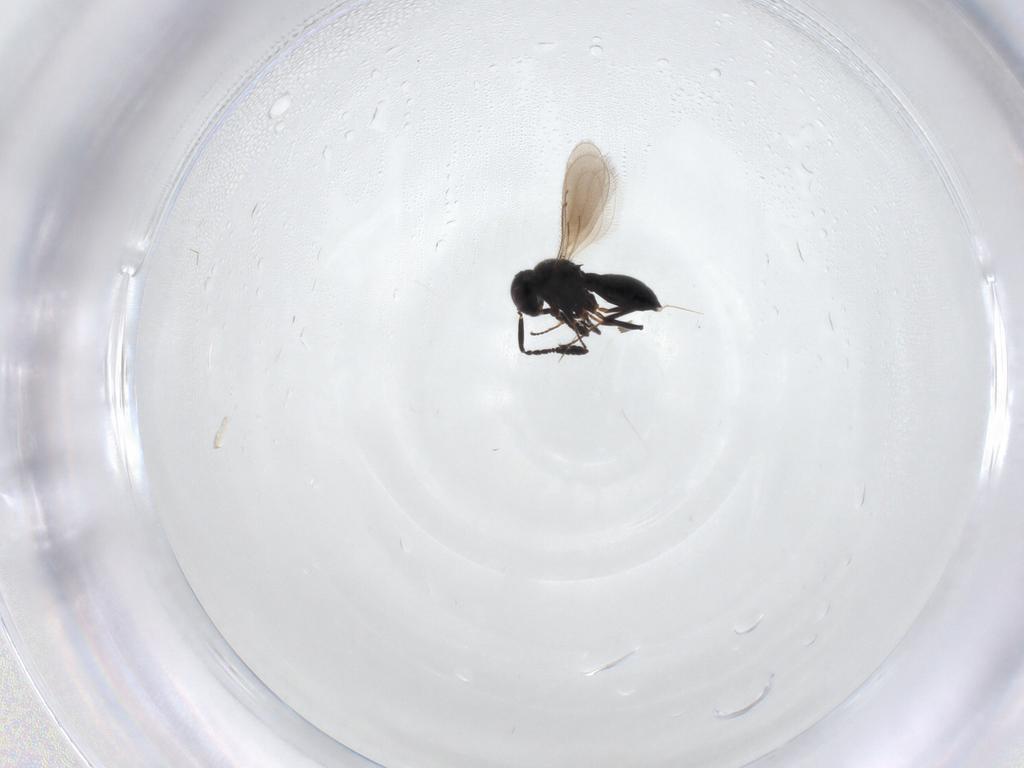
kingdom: Animalia
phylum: Arthropoda
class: Insecta
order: Hymenoptera
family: Scelionidae
